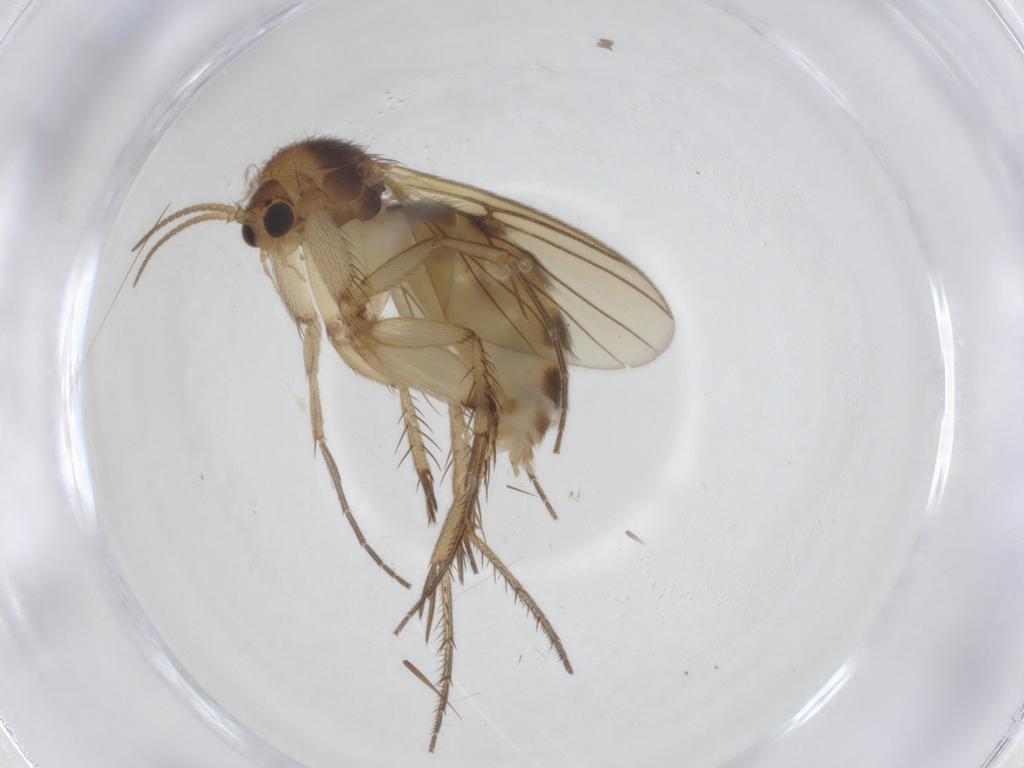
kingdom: Animalia
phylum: Arthropoda
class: Insecta
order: Diptera
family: Mycetophilidae
